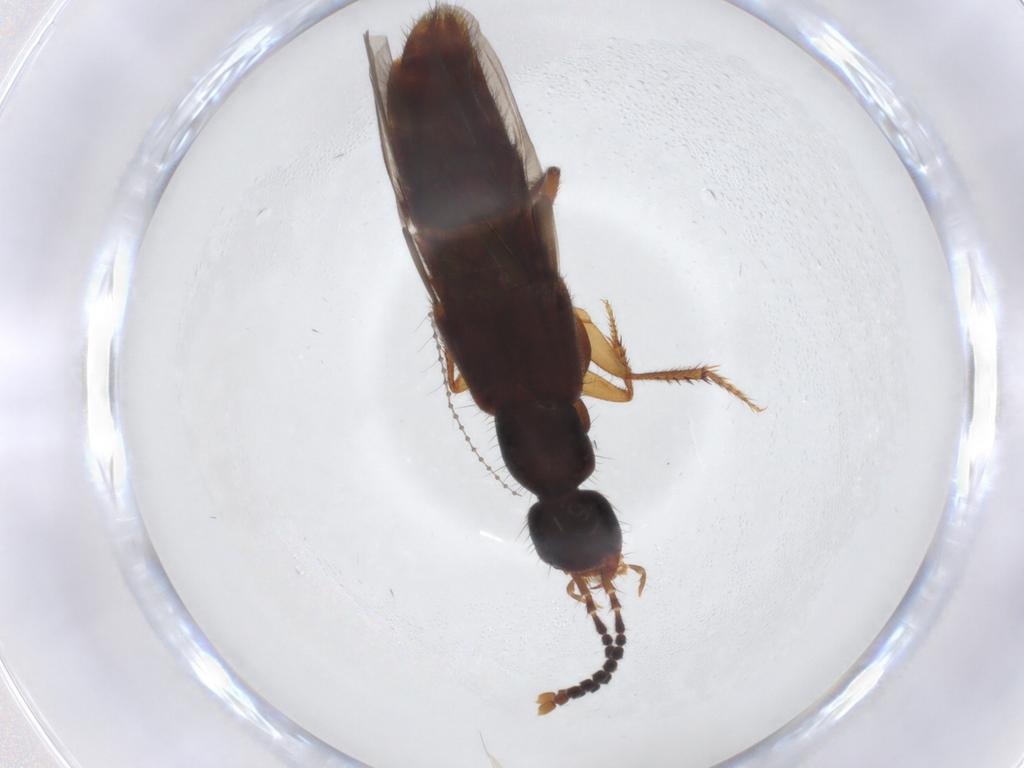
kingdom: Animalia
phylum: Arthropoda
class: Insecta
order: Coleoptera
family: Staphylinidae
